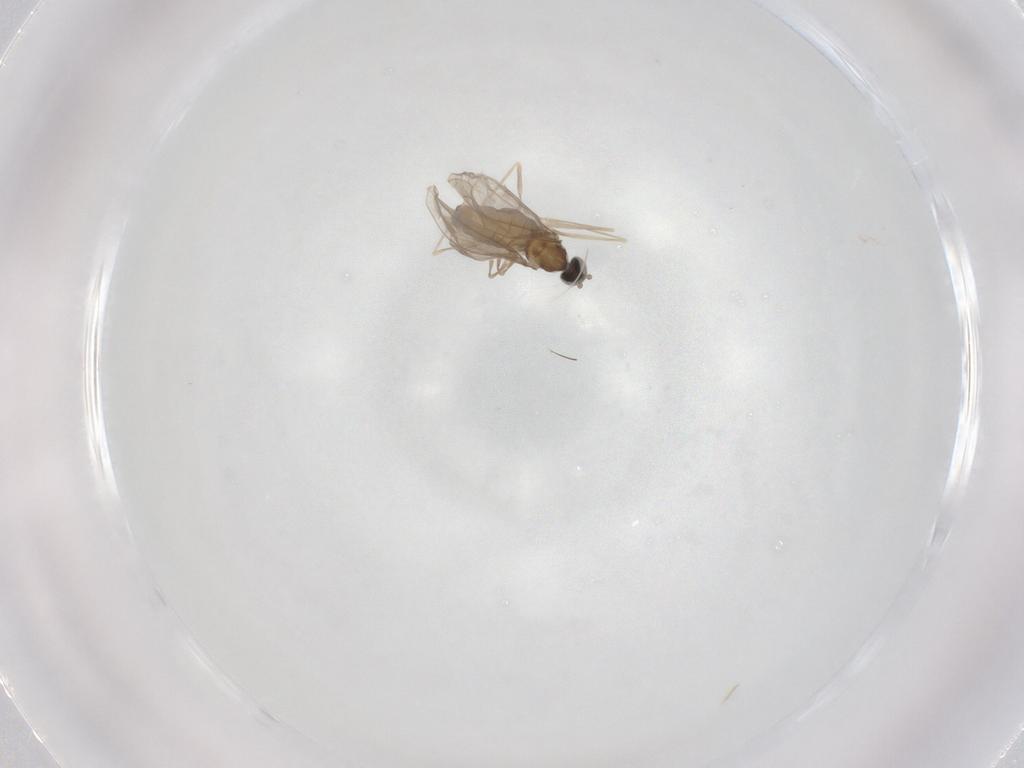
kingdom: Animalia
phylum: Arthropoda
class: Insecta
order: Diptera
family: Cecidomyiidae
